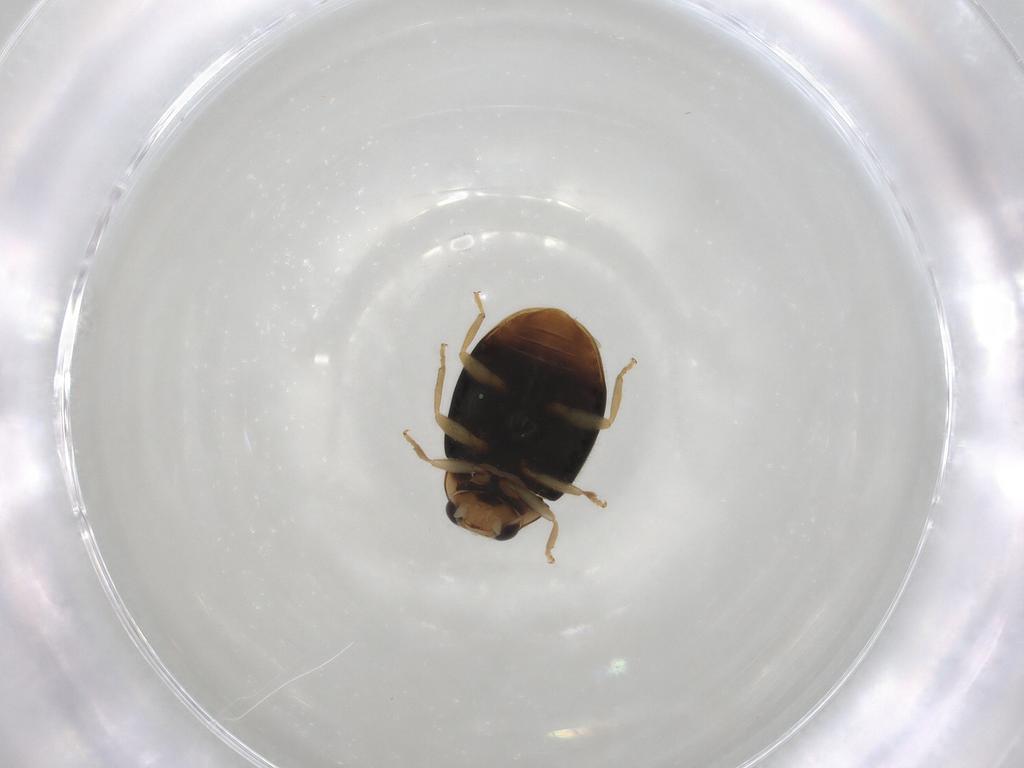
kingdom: Animalia
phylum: Arthropoda
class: Insecta
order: Coleoptera
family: Coccinellidae
